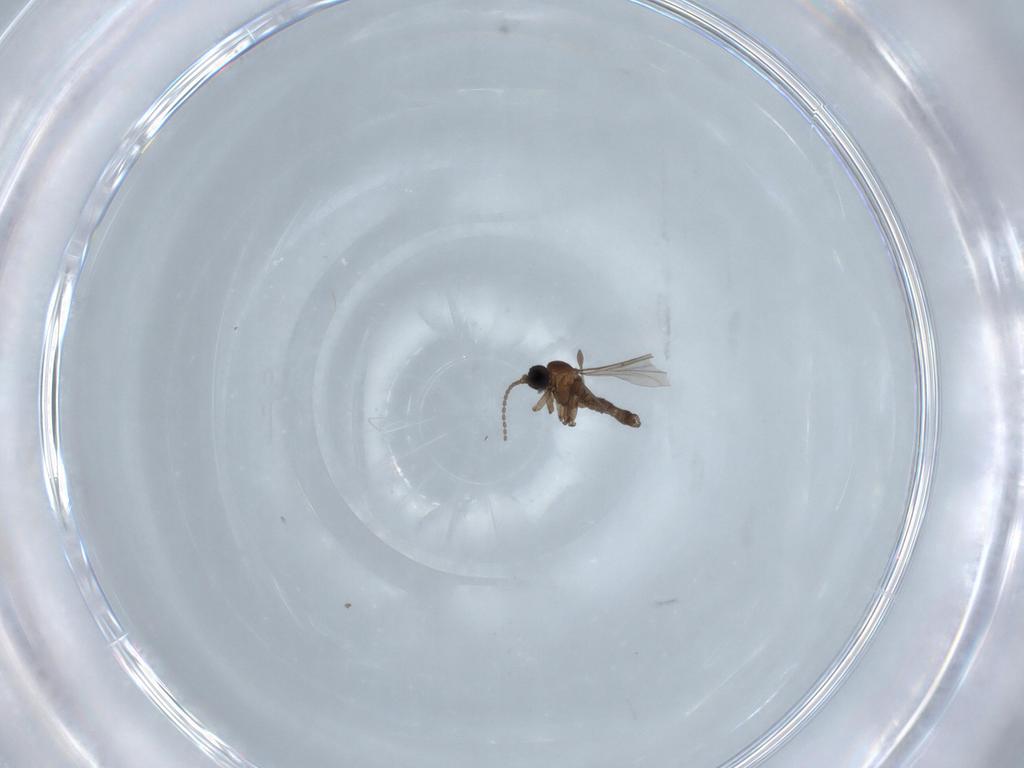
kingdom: Animalia
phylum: Arthropoda
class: Insecta
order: Diptera
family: Sciaridae
